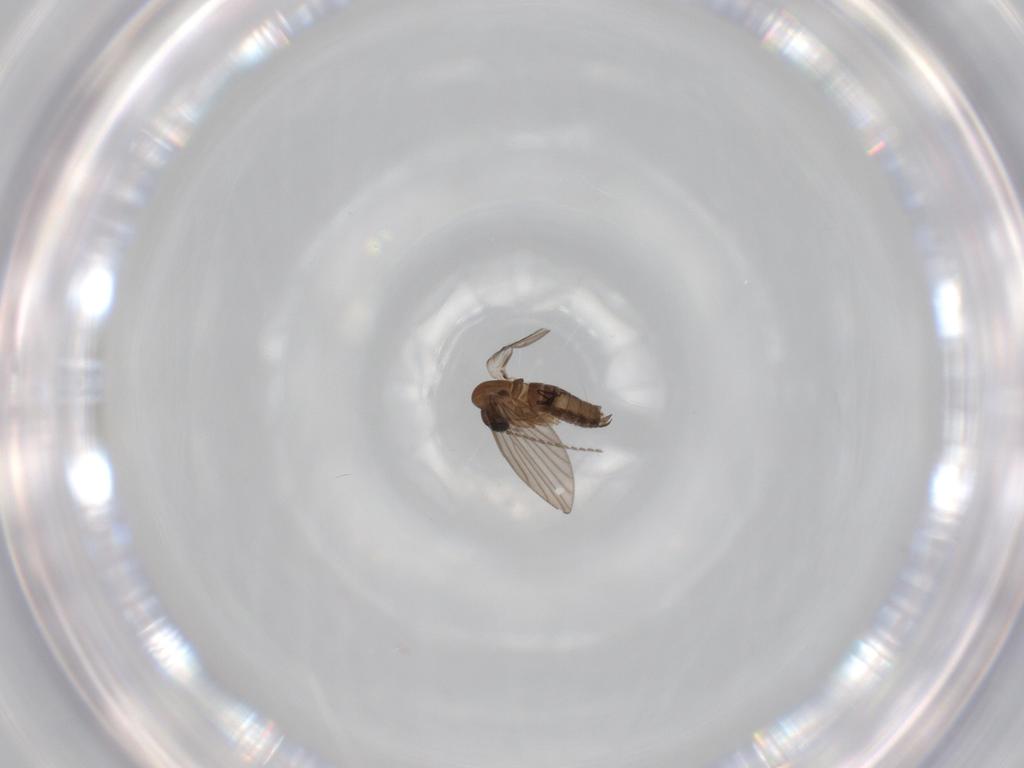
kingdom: Animalia
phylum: Arthropoda
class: Insecta
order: Diptera
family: Psychodidae
